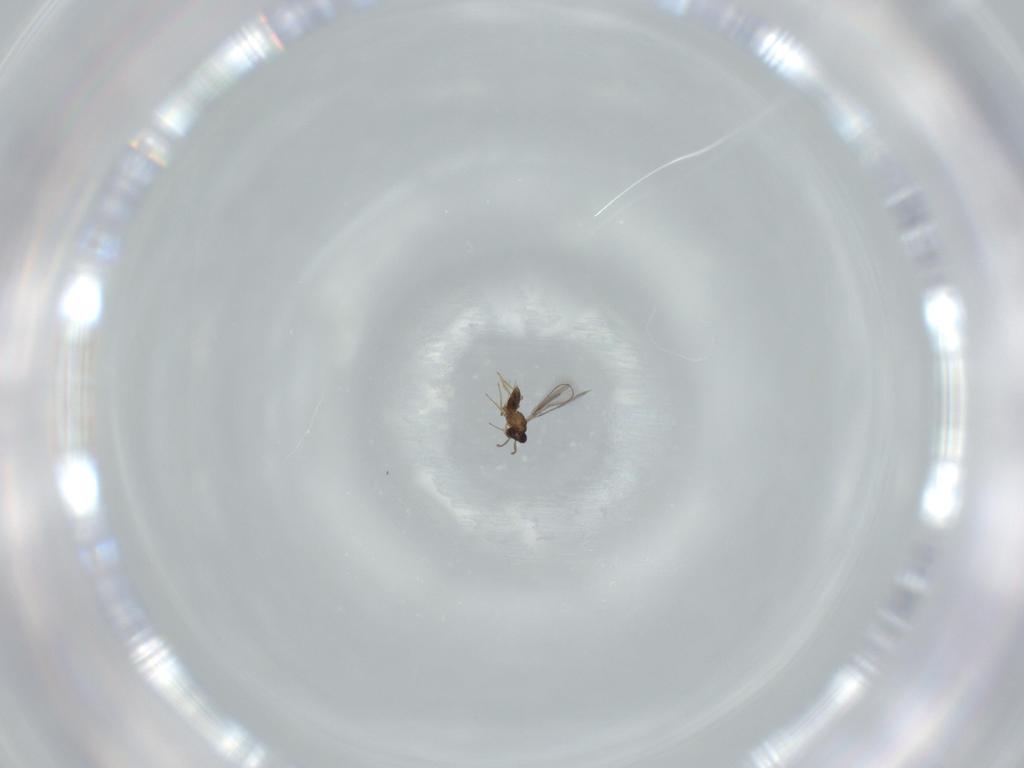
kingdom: Animalia
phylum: Arthropoda
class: Insecta
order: Hymenoptera
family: Mymaridae
